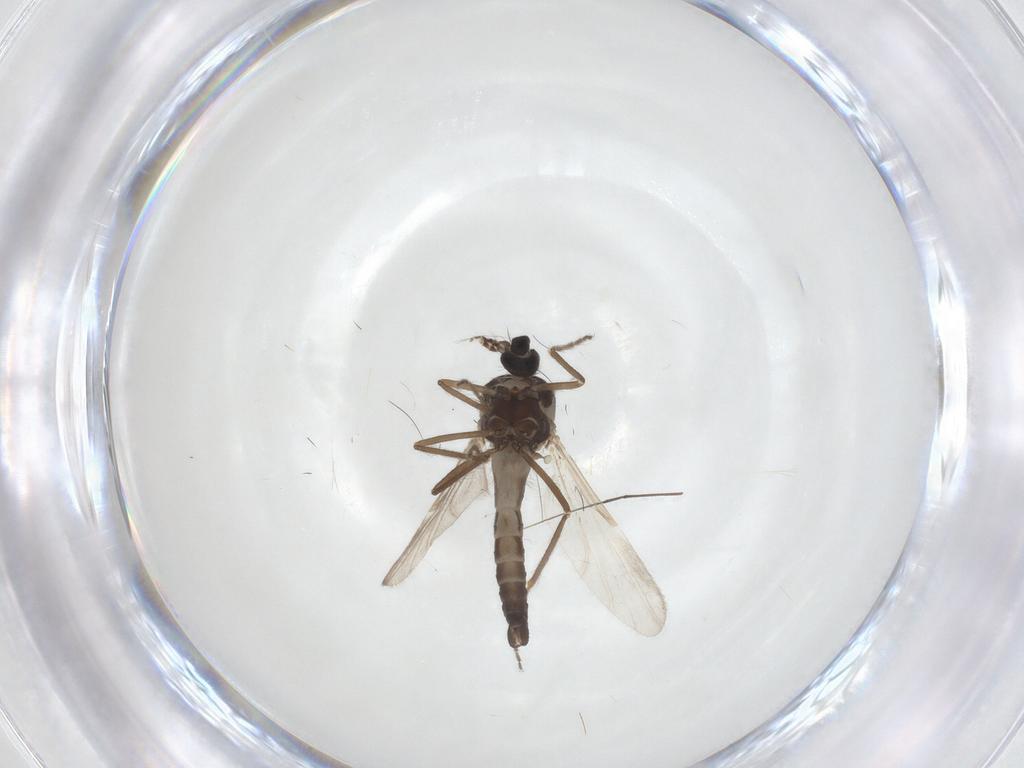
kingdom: Animalia
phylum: Arthropoda
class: Insecta
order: Diptera
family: Ceratopogonidae
